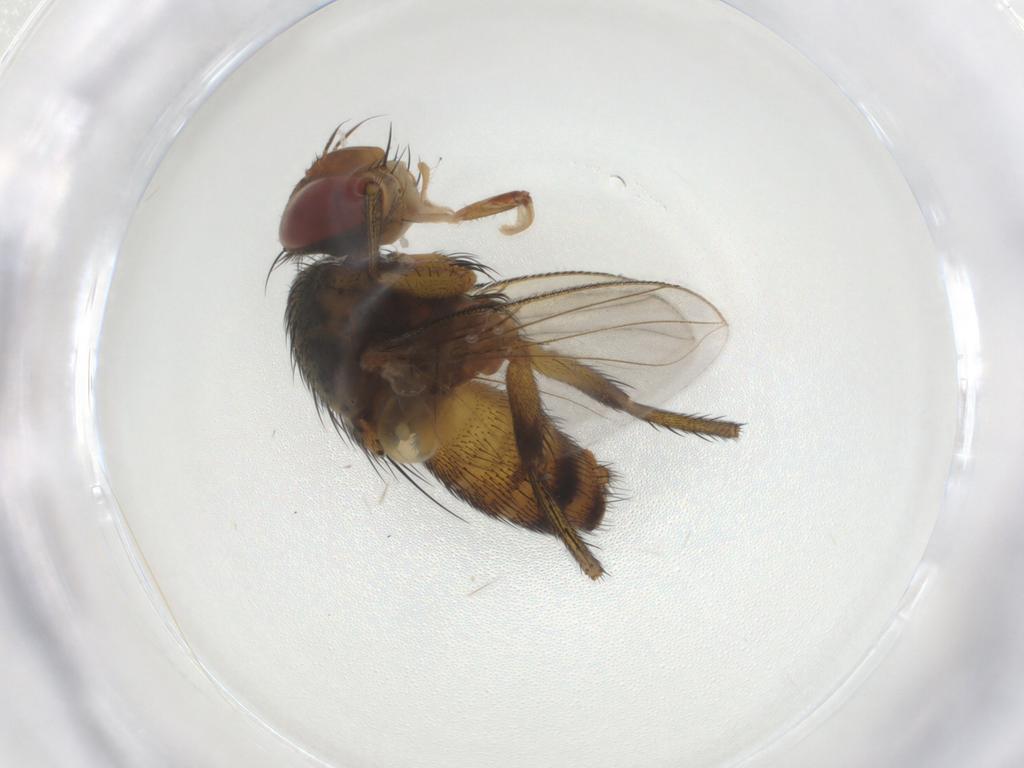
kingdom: Animalia
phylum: Arthropoda
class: Insecta
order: Diptera
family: Tachinidae
